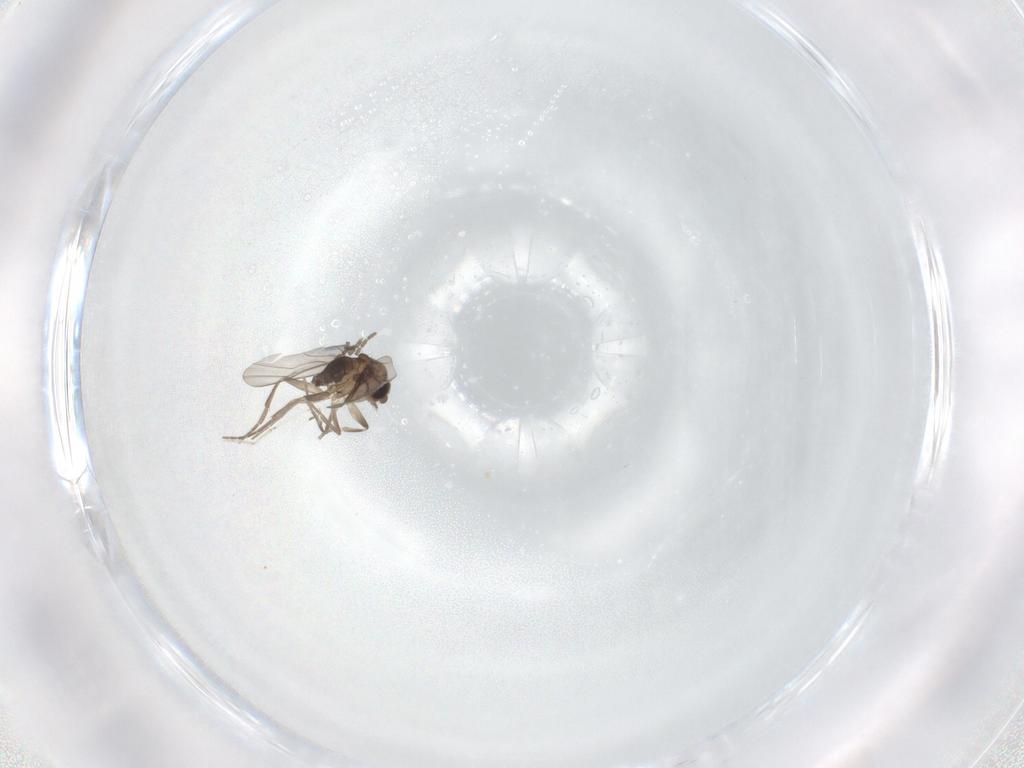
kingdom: Animalia
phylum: Arthropoda
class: Insecta
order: Diptera
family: Phoridae
